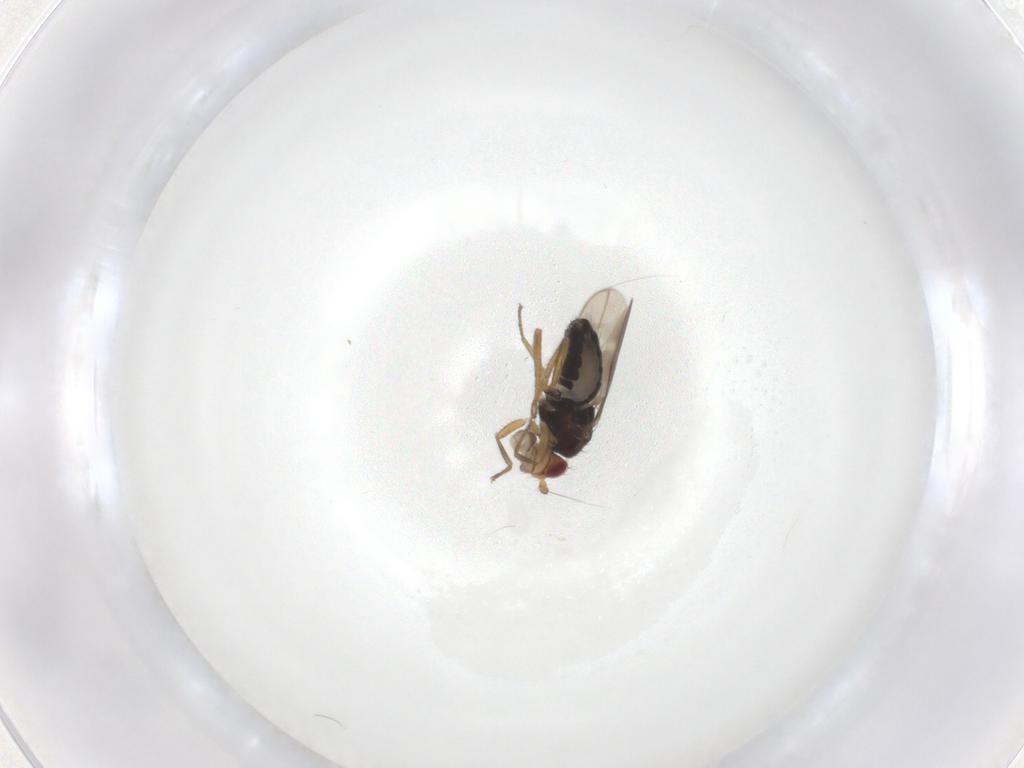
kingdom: Animalia
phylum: Arthropoda
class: Insecta
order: Diptera
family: Sphaeroceridae
